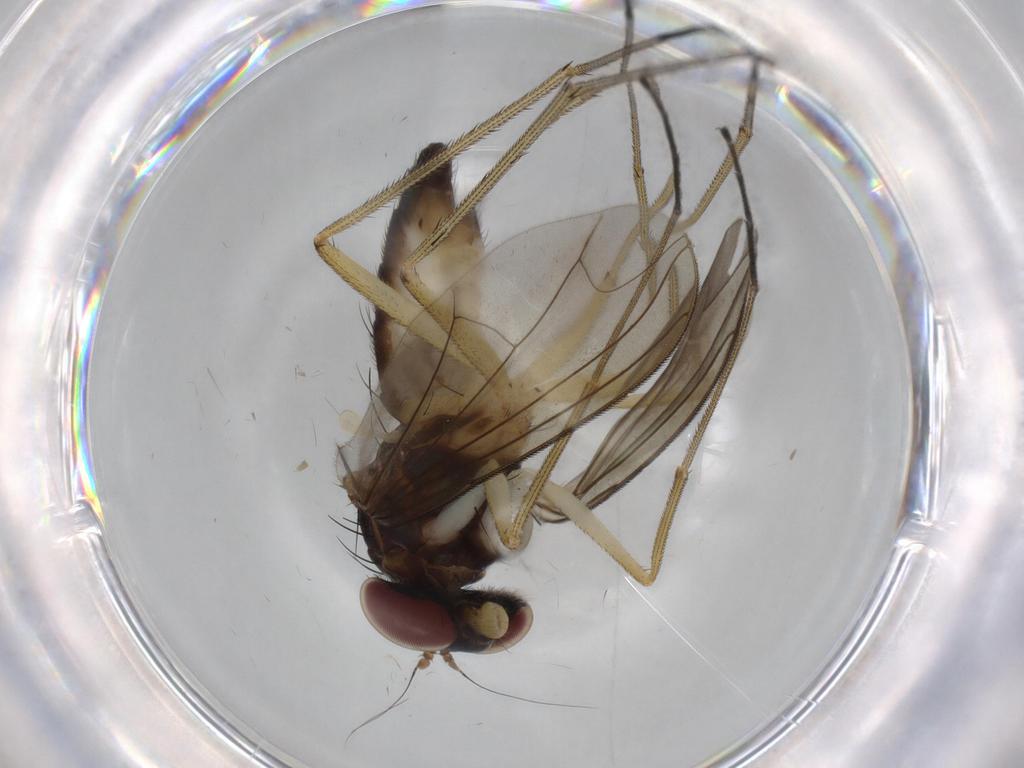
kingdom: Animalia
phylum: Arthropoda
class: Insecta
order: Diptera
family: Dolichopodidae
